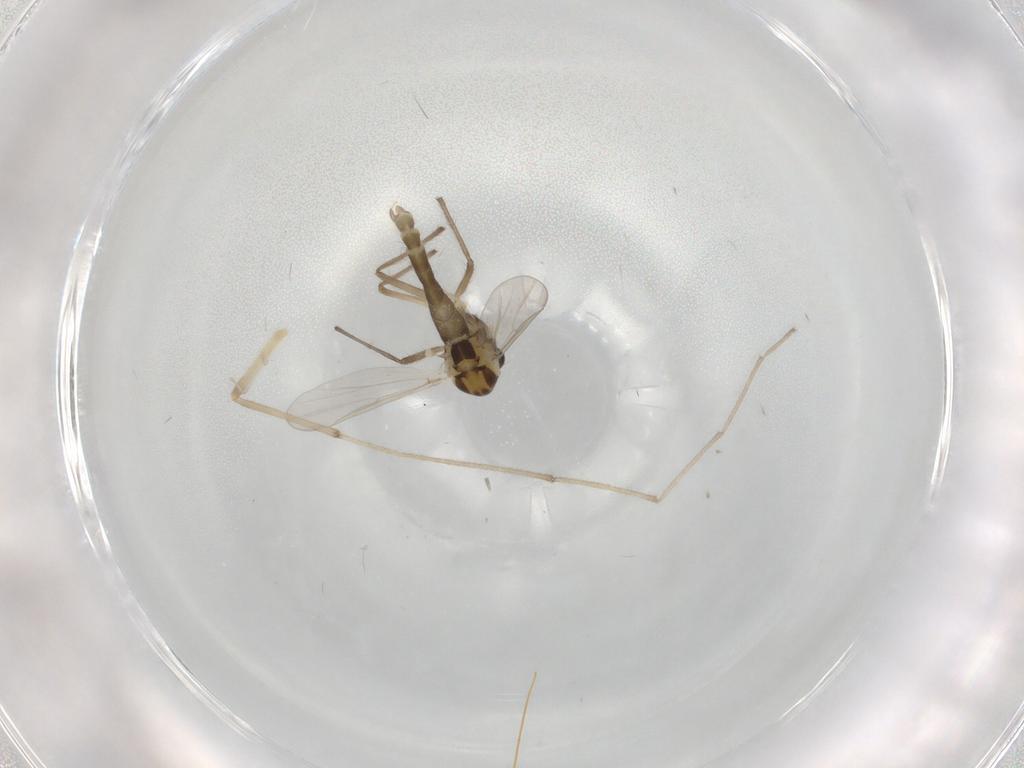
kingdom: Animalia
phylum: Arthropoda
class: Insecta
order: Diptera
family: Chironomidae
